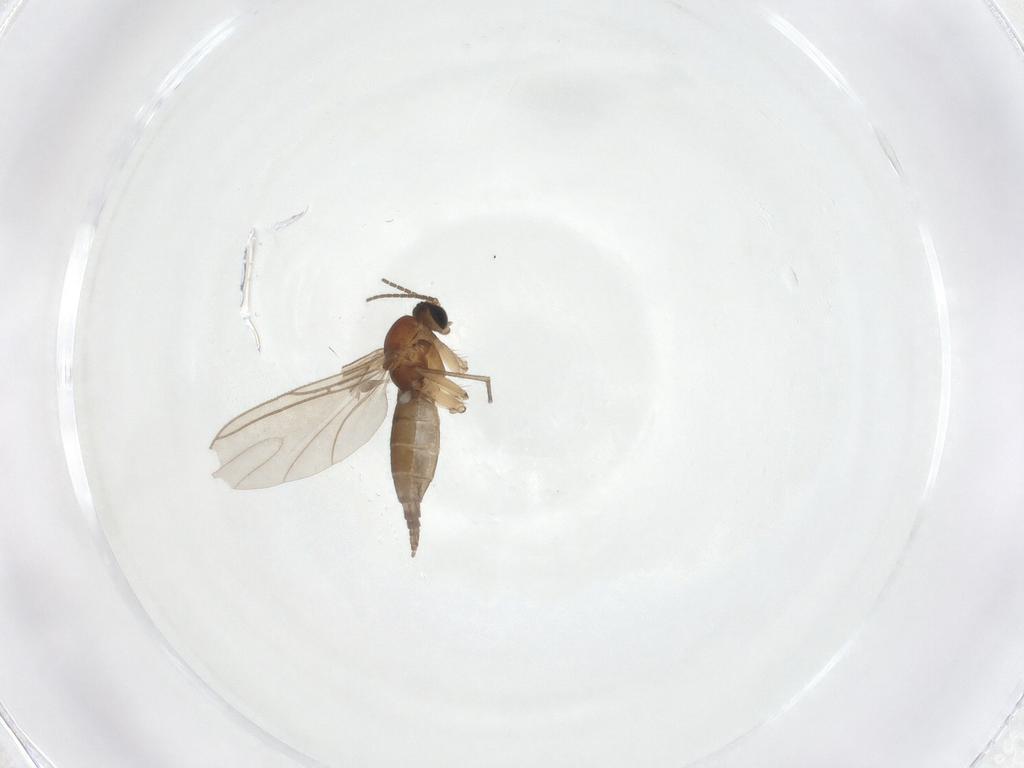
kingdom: Animalia
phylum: Arthropoda
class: Insecta
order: Diptera
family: Sciaridae
